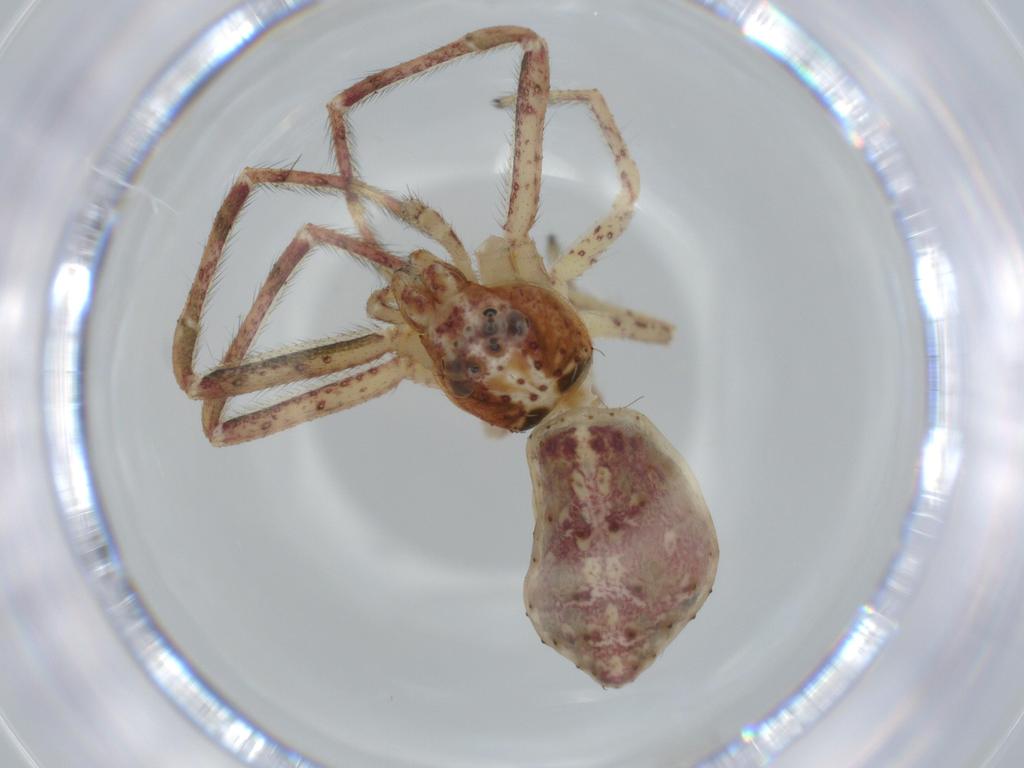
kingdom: Animalia
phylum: Arthropoda
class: Arachnida
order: Araneae
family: Thomisidae
